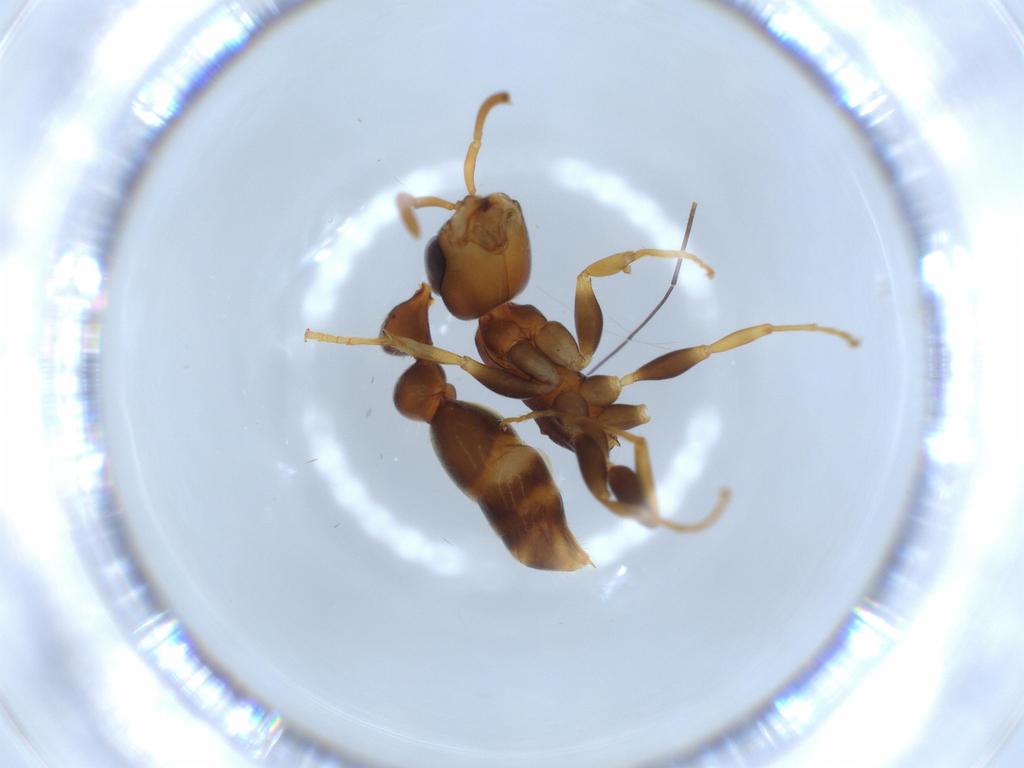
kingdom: Animalia
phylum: Arthropoda
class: Insecta
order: Hymenoptera
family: Formicidae
